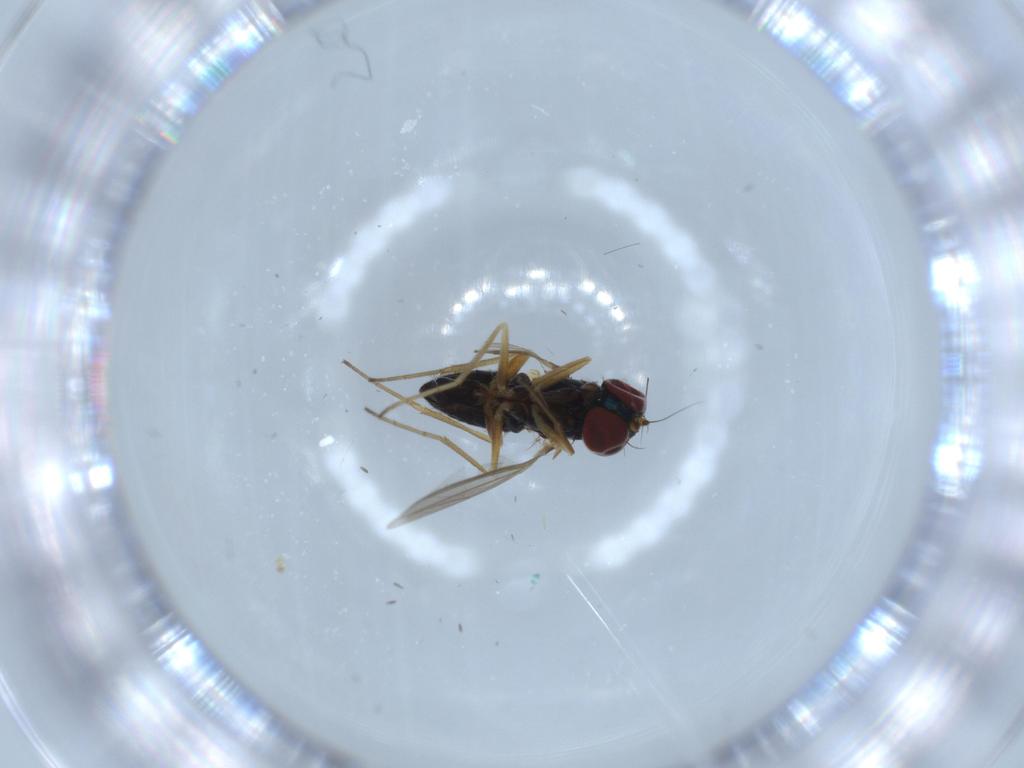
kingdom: Animalia
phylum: Arthropoda
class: Insecta
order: Diptera
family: Dolichopodidae
